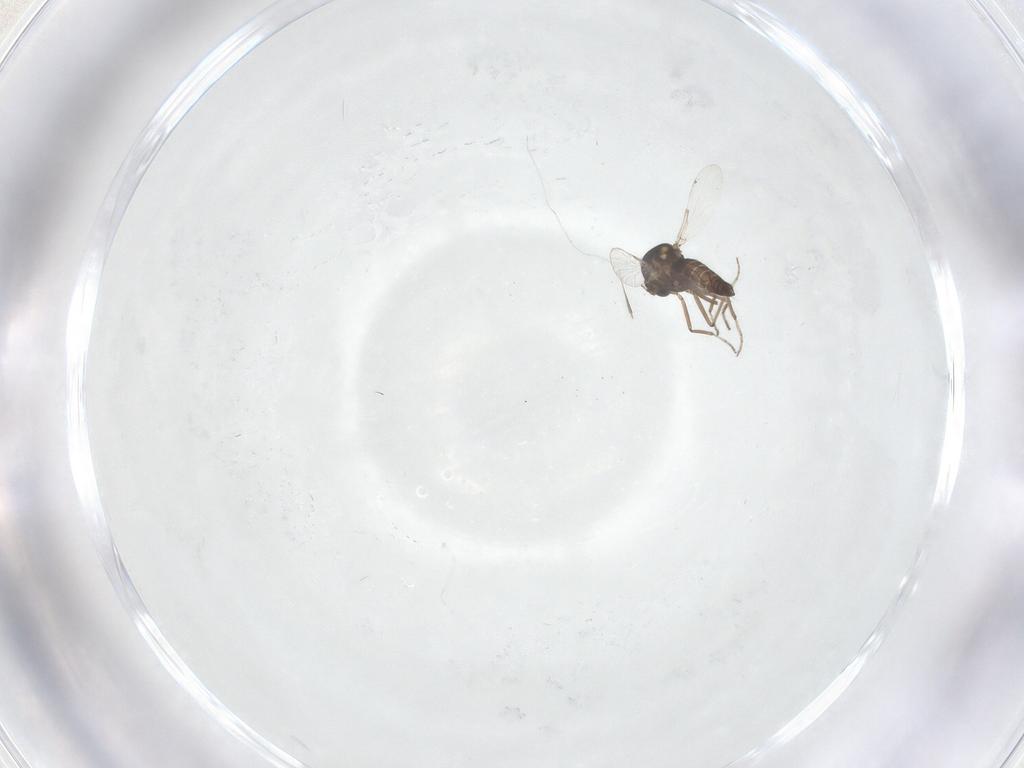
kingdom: Animalia
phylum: Arthropoda
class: Insecta
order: Diptera
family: Ceratopogonidae
